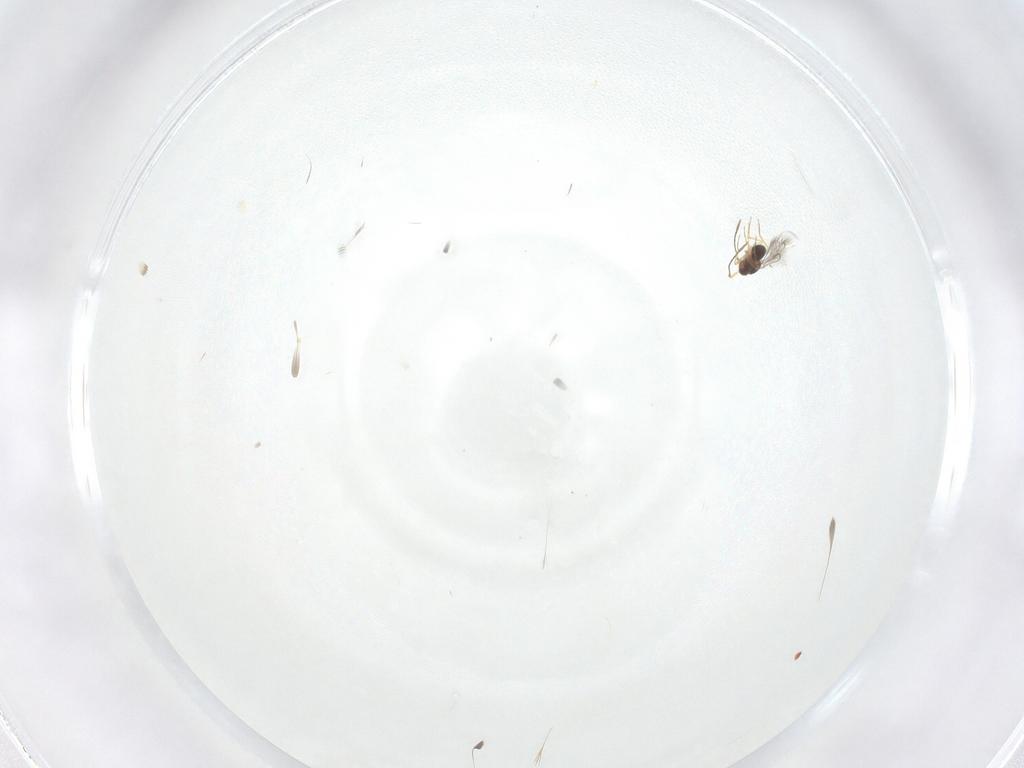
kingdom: Animalia
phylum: Arthropoda
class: Insecta
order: Hymenoptera
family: Mymaridae
